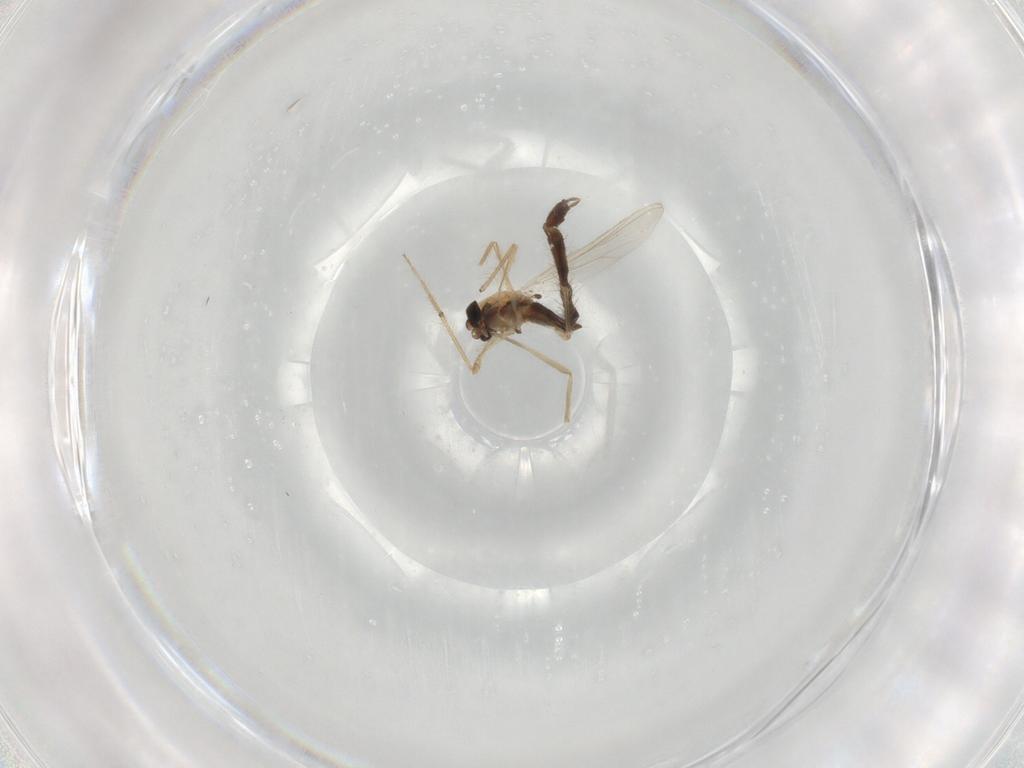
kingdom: Animalia
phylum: Arthropoda
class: Insecta
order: Diptera
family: Chironomidae
